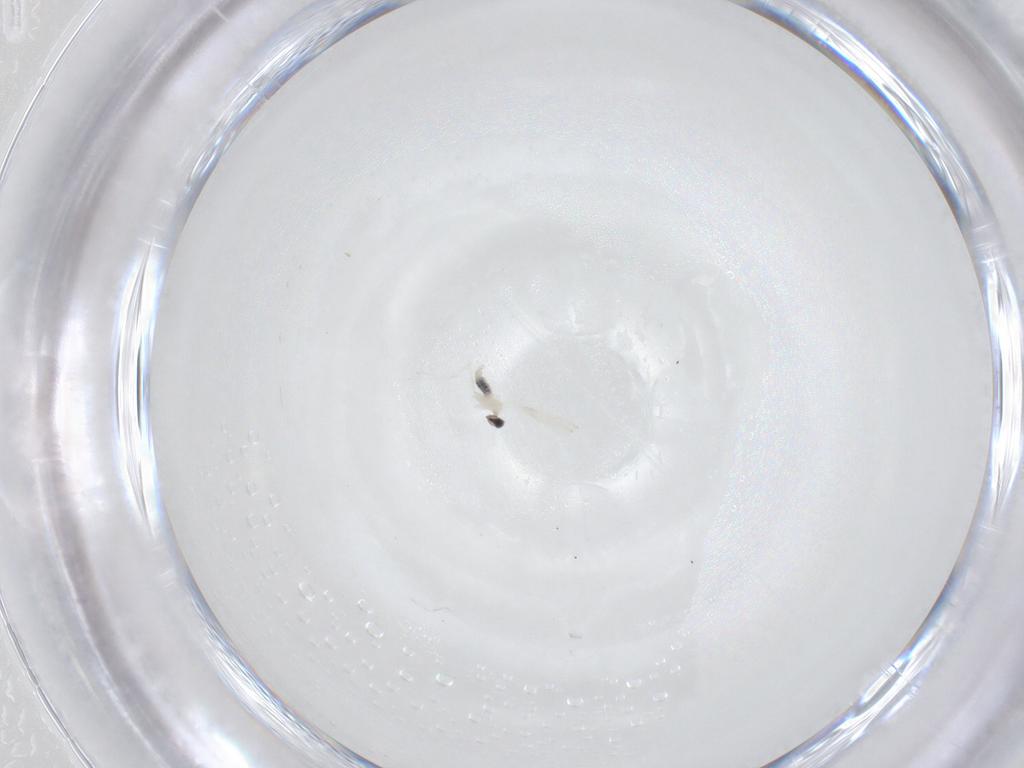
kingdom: Animalia
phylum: Arthropoda
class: Insecta
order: Diptera
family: Cecidomyiidae
